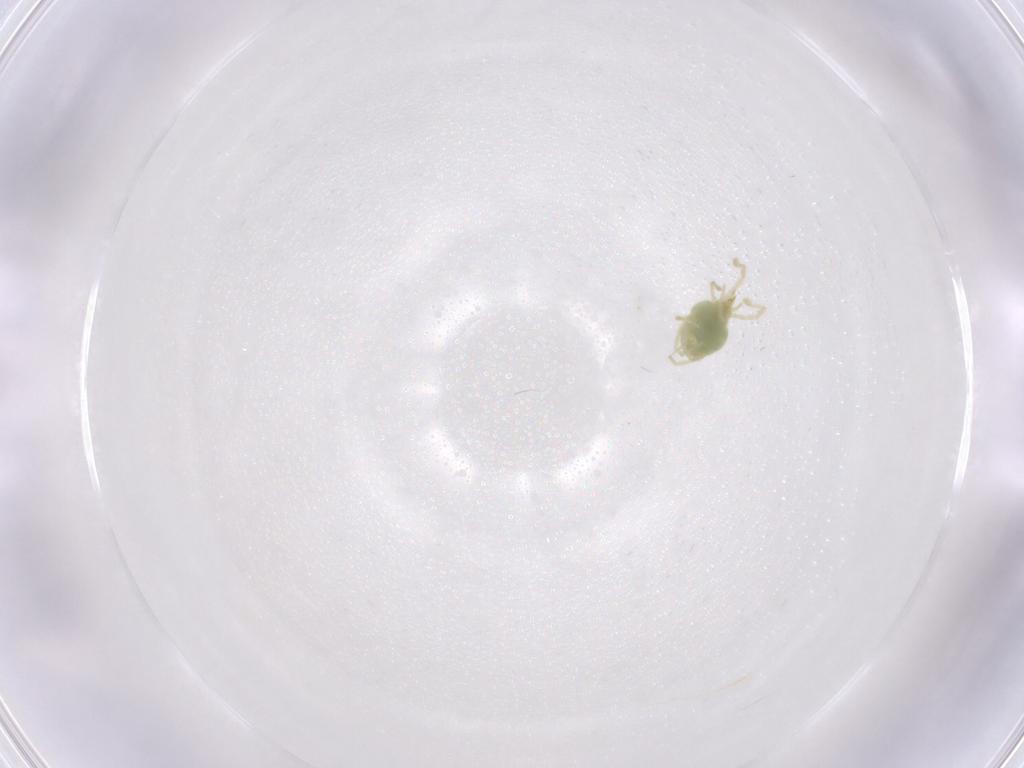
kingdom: Animalia
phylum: Arthropoda
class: Arachnida
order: Trombidiformes
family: Erythraeidae
